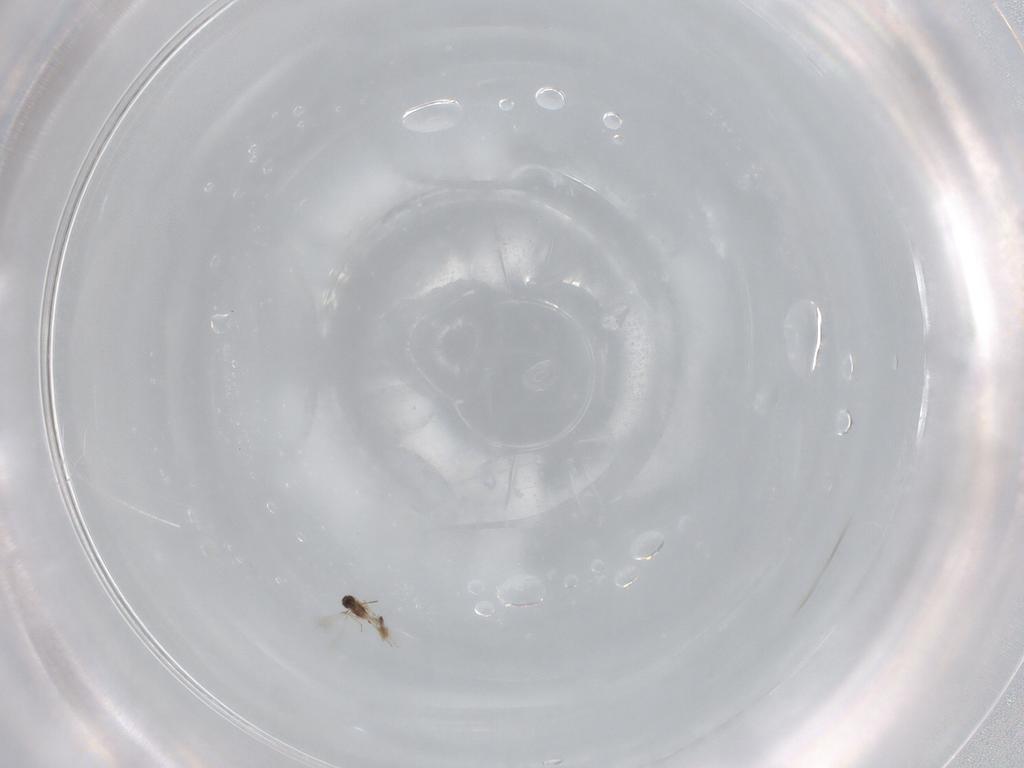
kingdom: Animalia
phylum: Arthropoda
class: Insecta
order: Hymenoptera
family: Mymaridae
